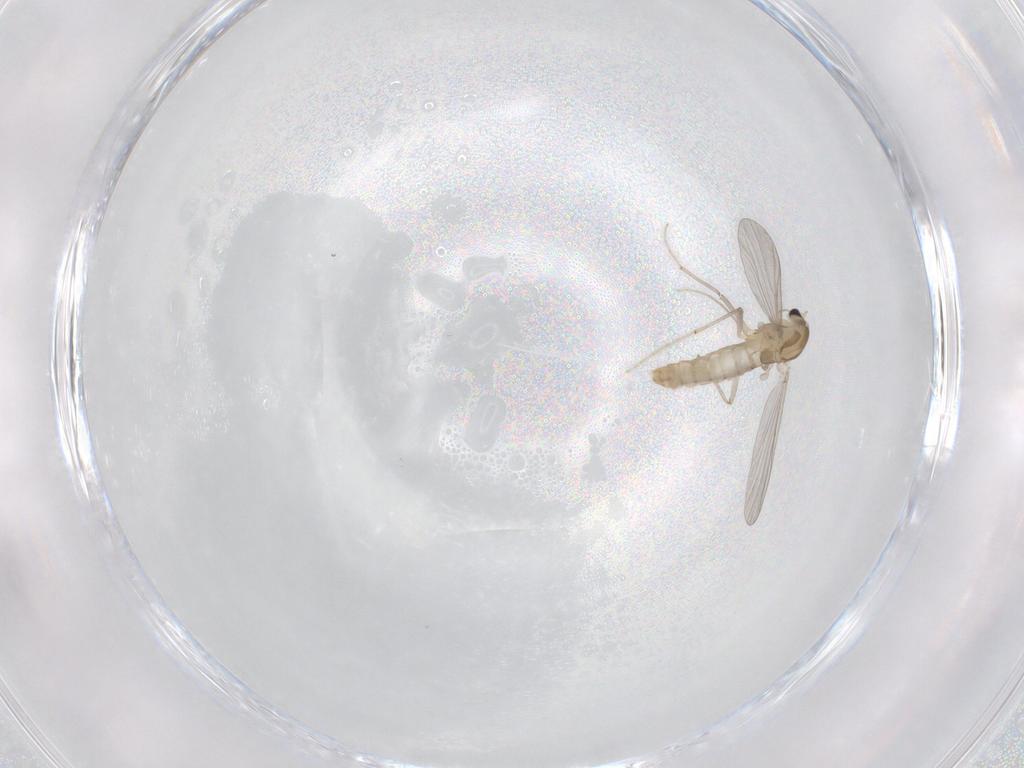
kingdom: Animalia
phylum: Arthropoda
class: Insecta
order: Diptera
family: Chironomidae
